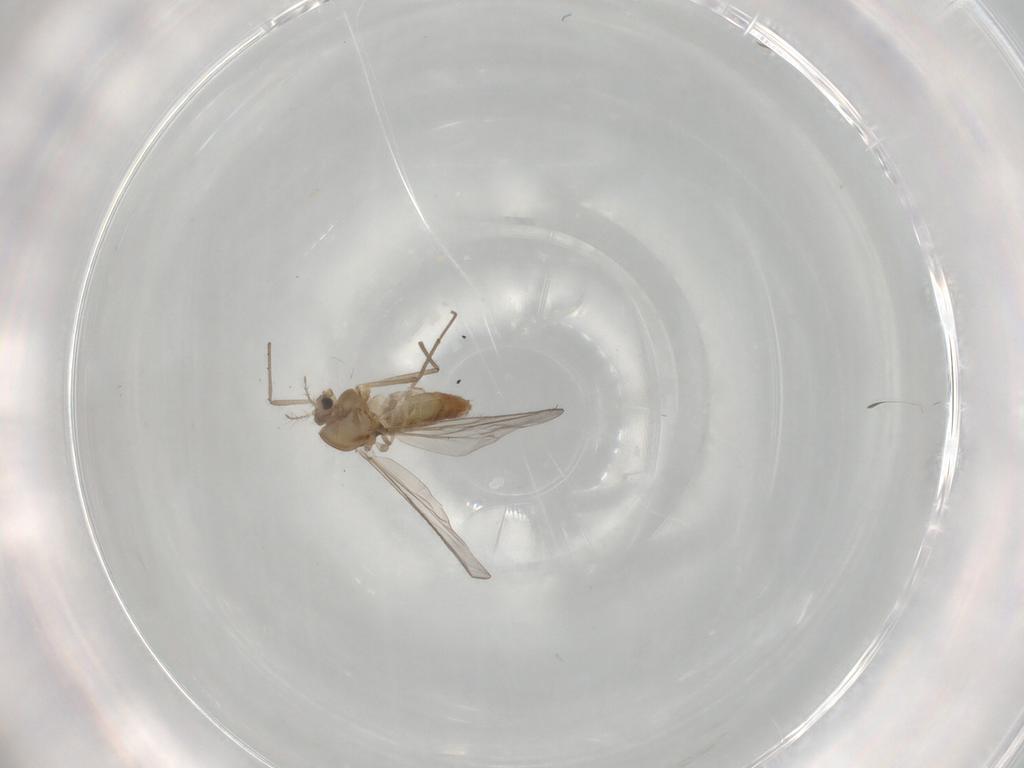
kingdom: Animalia
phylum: Arthropoda
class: Insecta
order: Diptera
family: Chironomidae
